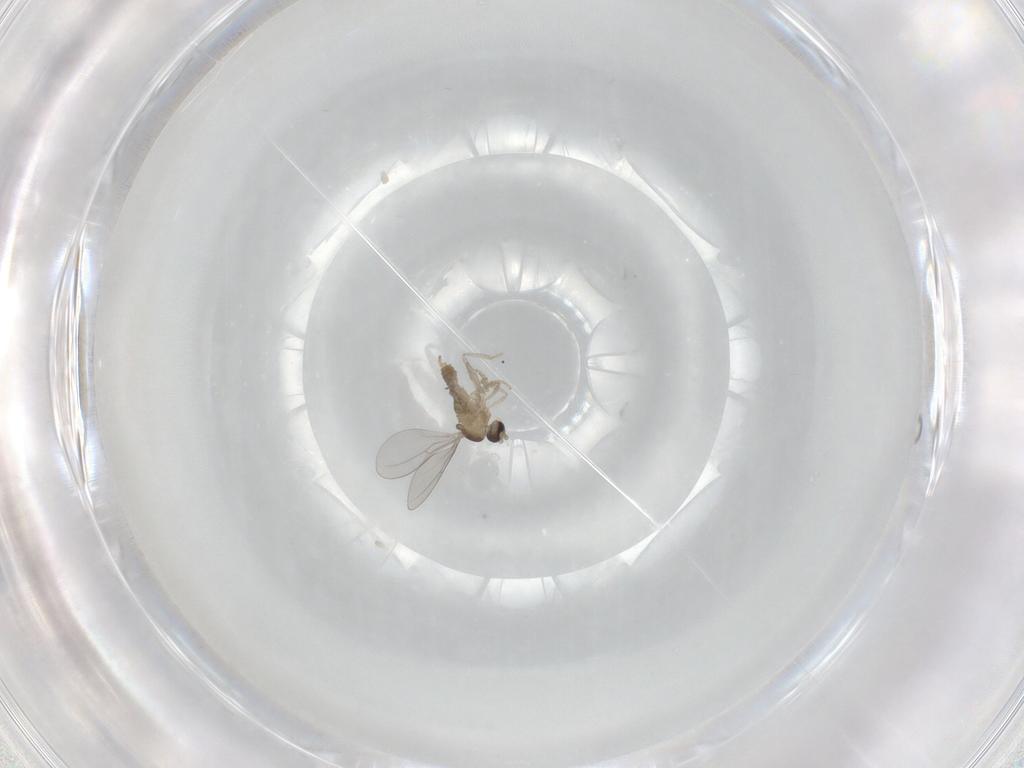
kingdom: Animalia
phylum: Arthropoda
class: Insecta
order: Diptera
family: Cecidomyiidae
